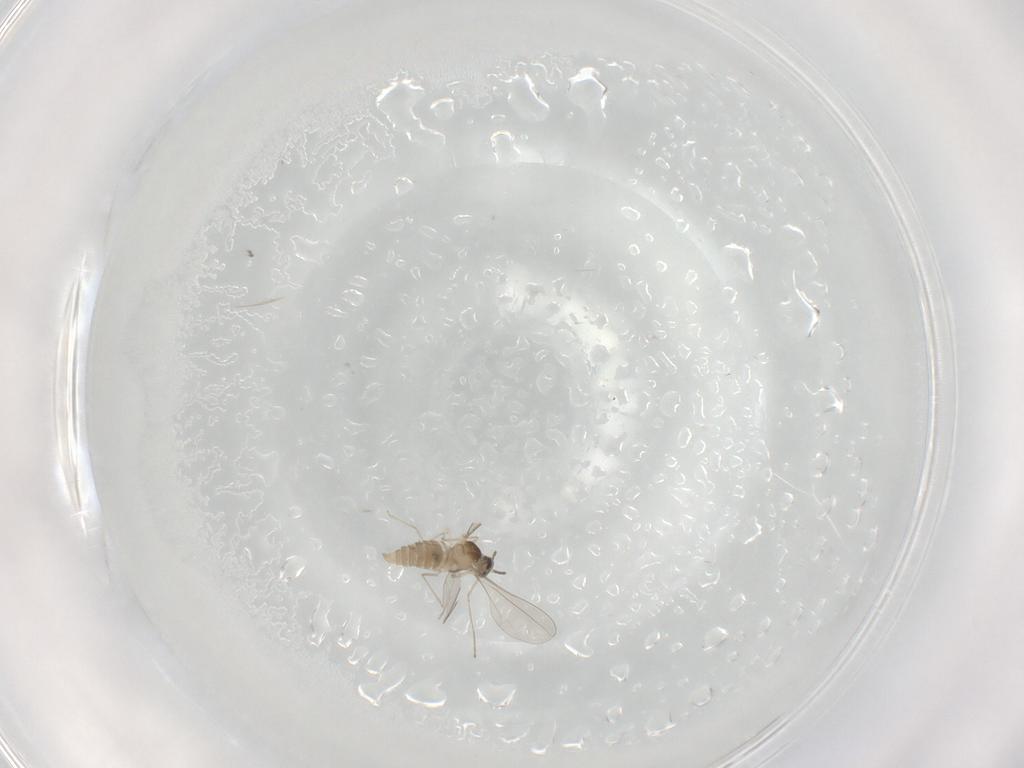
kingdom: Animalia
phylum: Arthropoda
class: Insecta
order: Diptera
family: Cecidomyiidae
